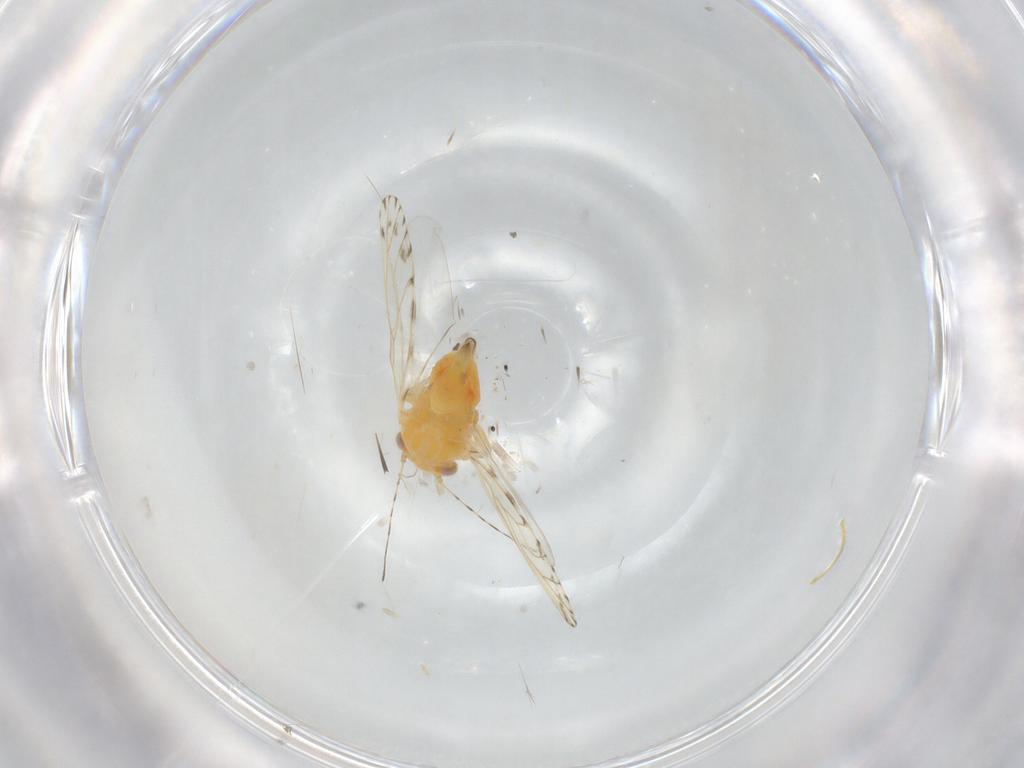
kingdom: Animalia
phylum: Arthropoda
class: Insecta
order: Hemiptera
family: Psyllidae
